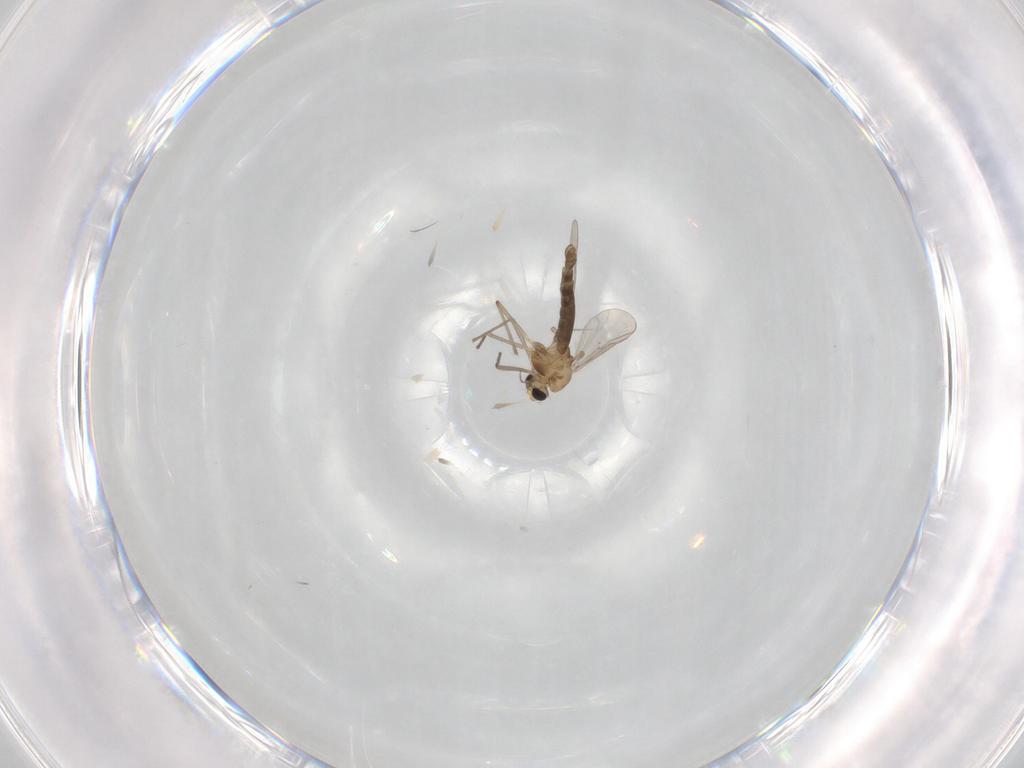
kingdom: Animalia
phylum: Arthropoda
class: Insecta
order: Diptera
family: Chironomidae
